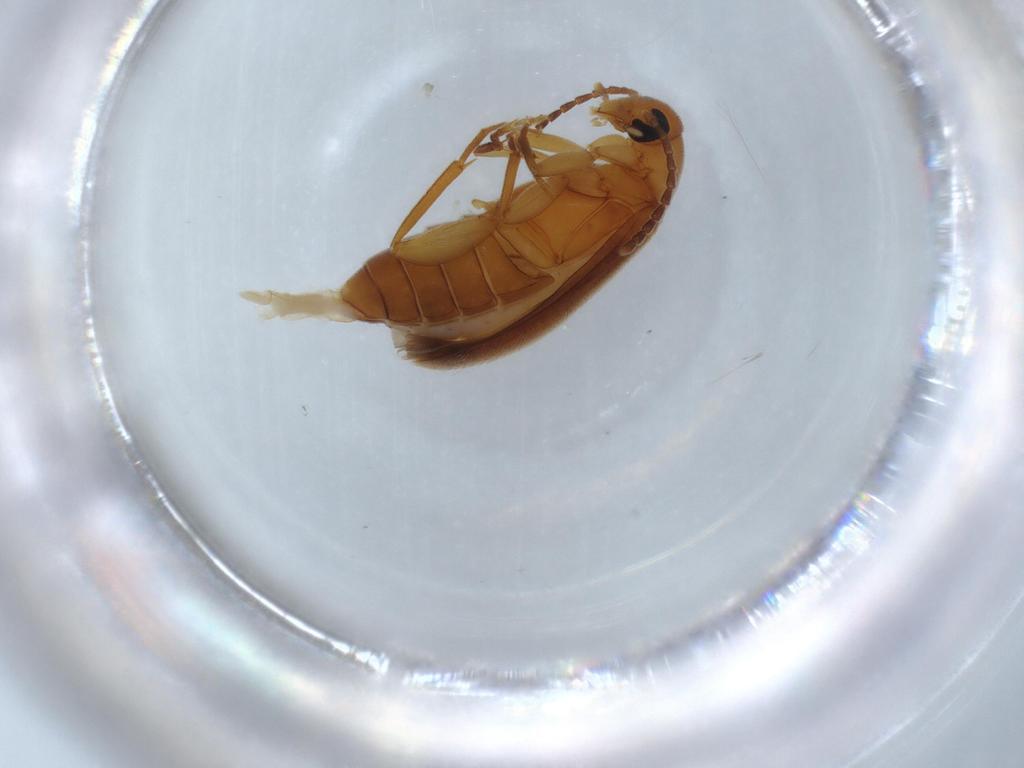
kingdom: Animalia
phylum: Arthropoda
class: Insecta
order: Coleoptera
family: Scraptiidae
